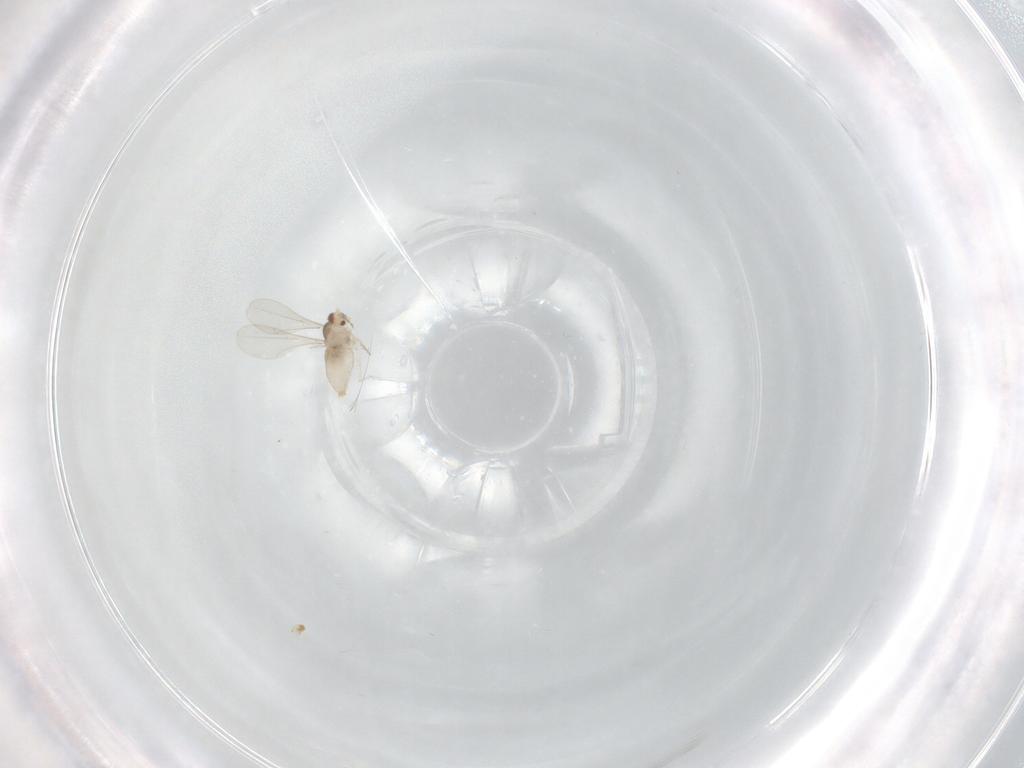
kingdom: Animalia
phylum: Arthropoda
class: Insecta
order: Diptera
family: Cecidomyiidae
